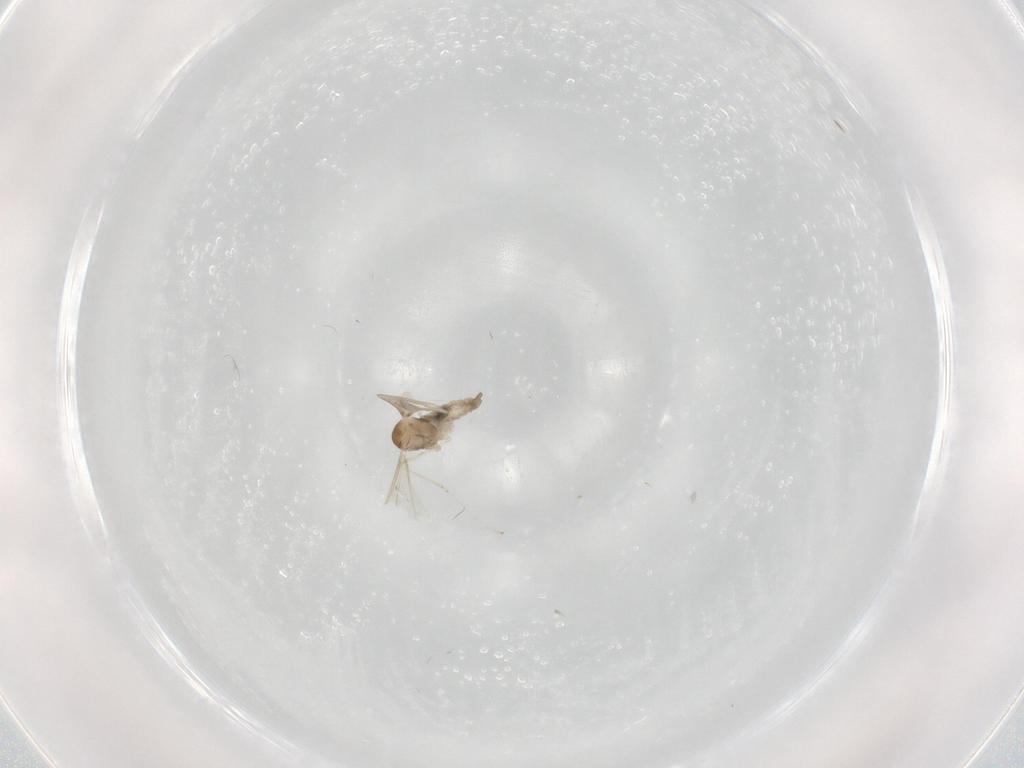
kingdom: Animalia
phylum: Arthropoda
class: Insecta
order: Diptera
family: Cecidomyiidae
